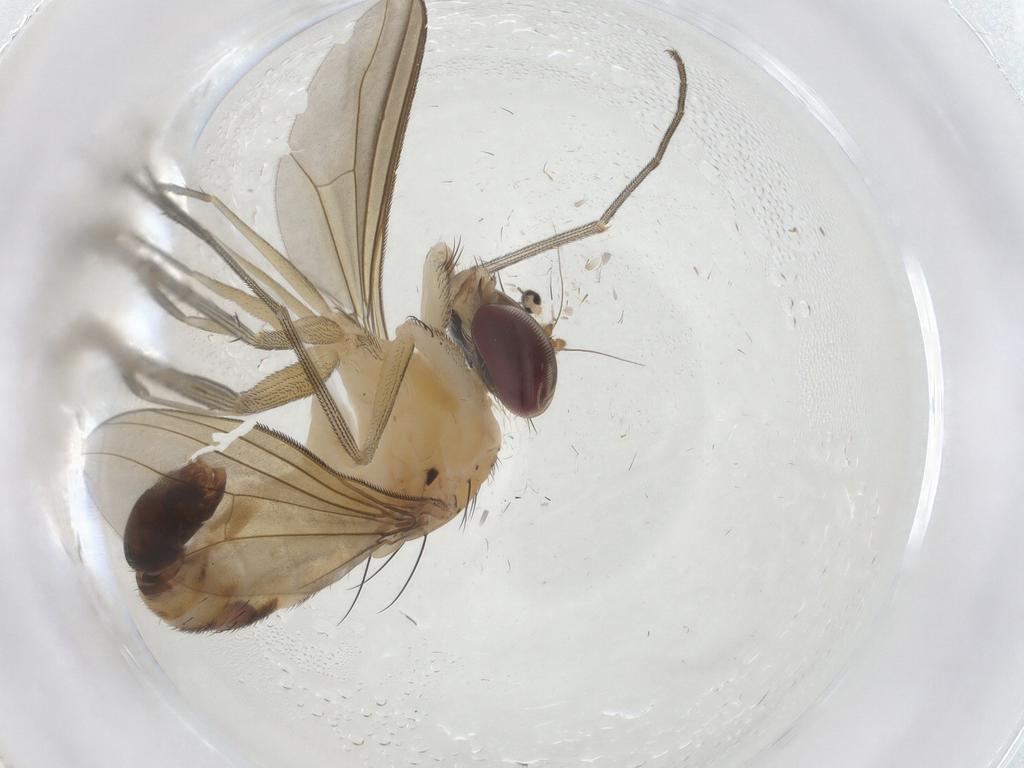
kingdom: Animalia
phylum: Arthropoda
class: Insecta
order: Diptera
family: Dolichopodidae
